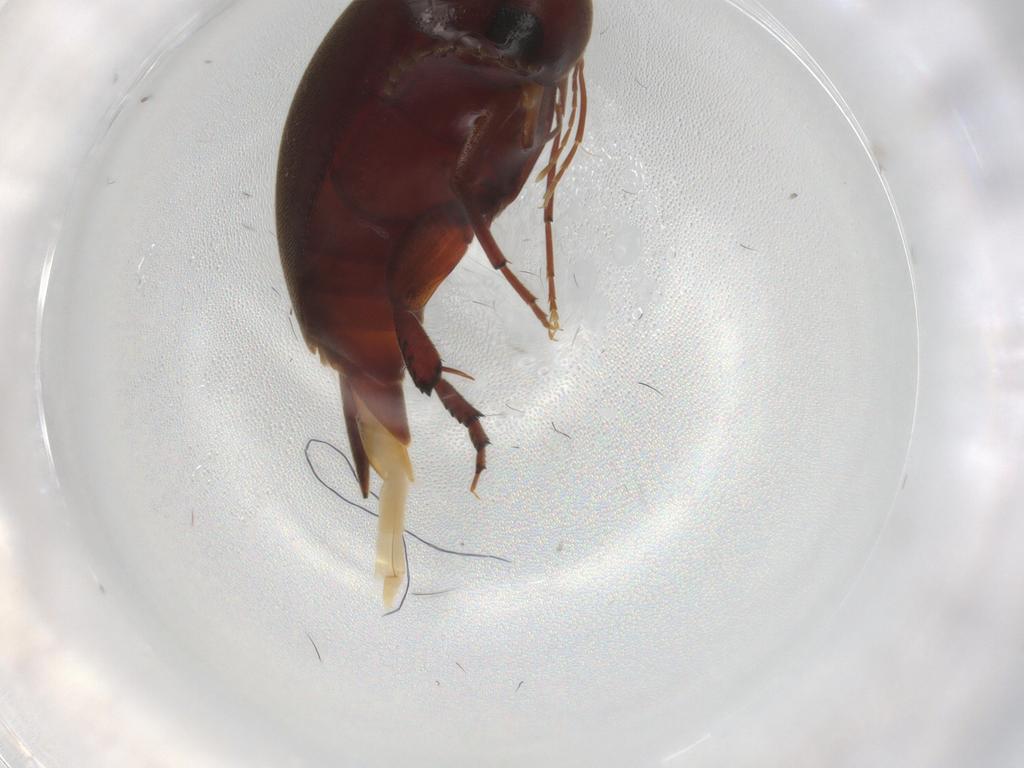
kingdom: Animalia
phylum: Arthropoda
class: Insecta
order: Coleoptera
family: Mordellidae
